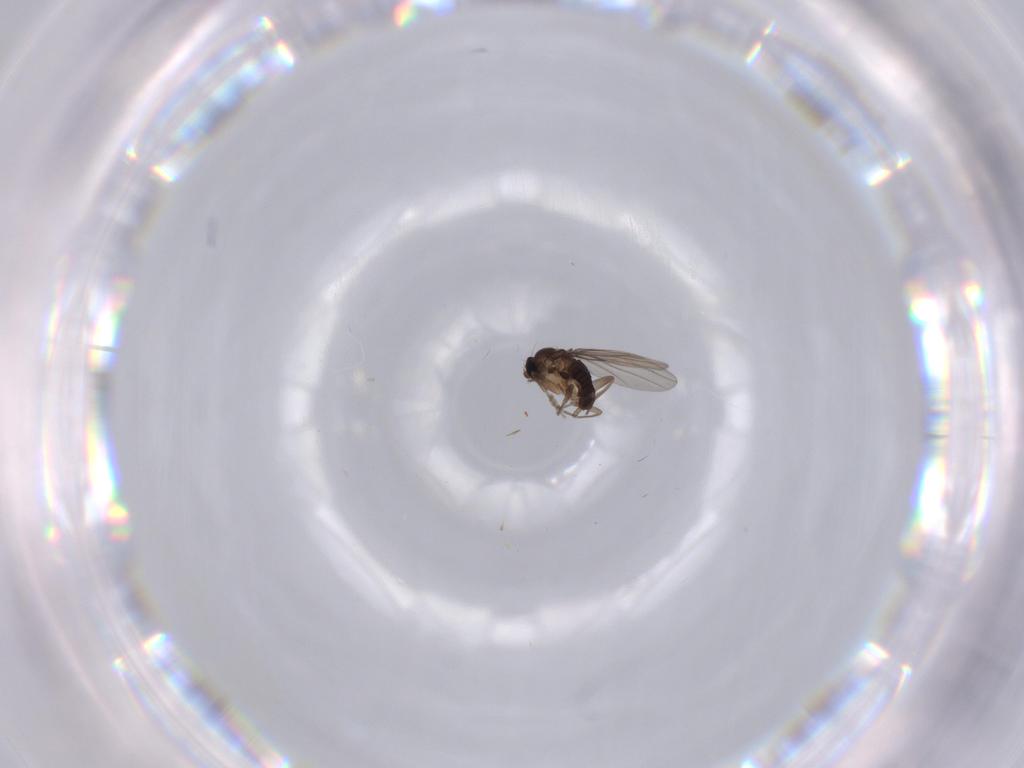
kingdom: Animalia
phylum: Arthropoda
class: Insecta
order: Diptera
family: Phoridae
